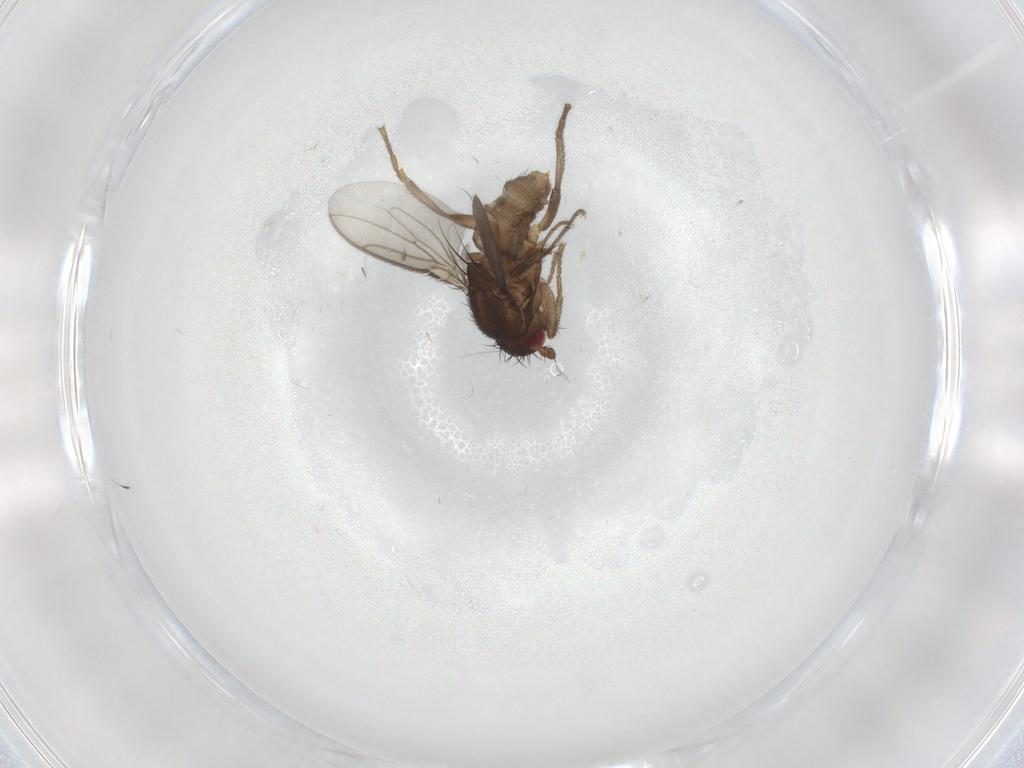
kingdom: Animalia
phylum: Arthropoda
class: Insecta
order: Diptera
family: Sphaeroceridae
